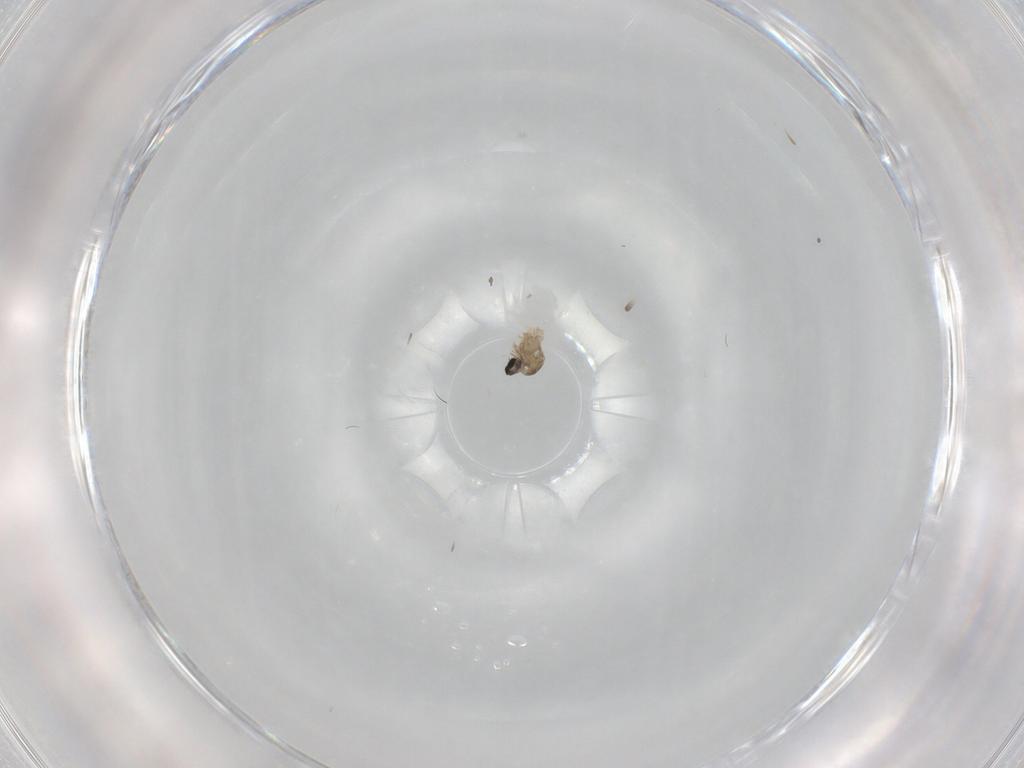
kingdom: Animalia
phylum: Arthropoda
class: Insecta
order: Diptera
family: Cecidomyiidae
